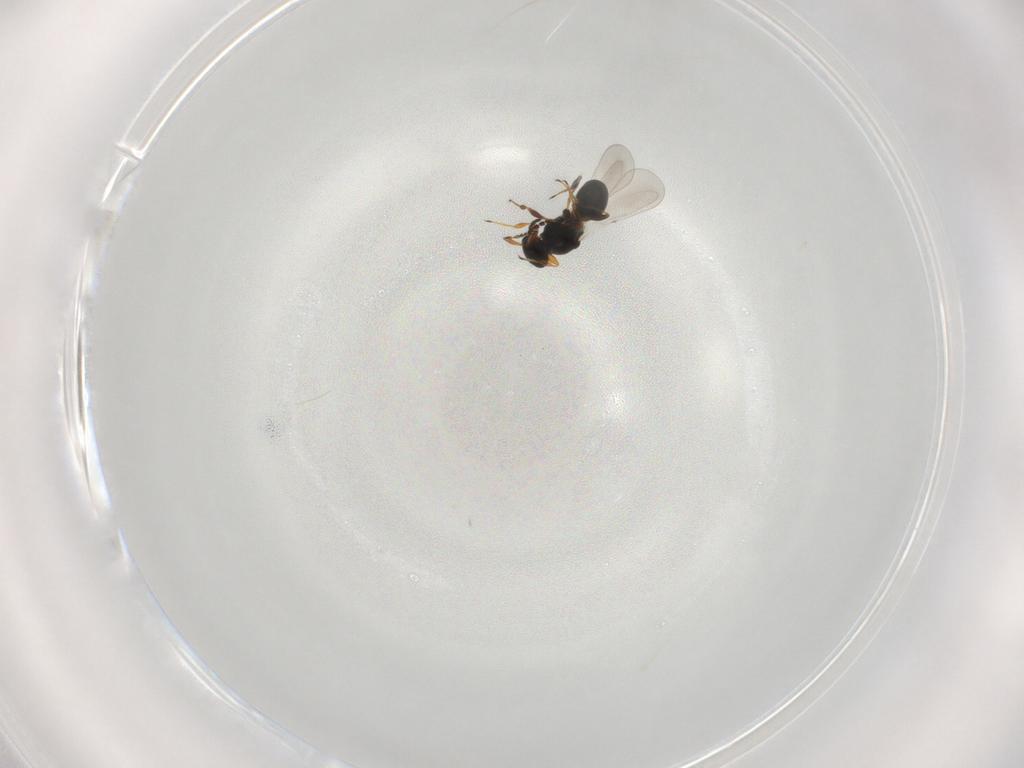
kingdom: Animalia
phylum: Arthropoda
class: Insecta
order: Hymenoptera
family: Platygastridae
